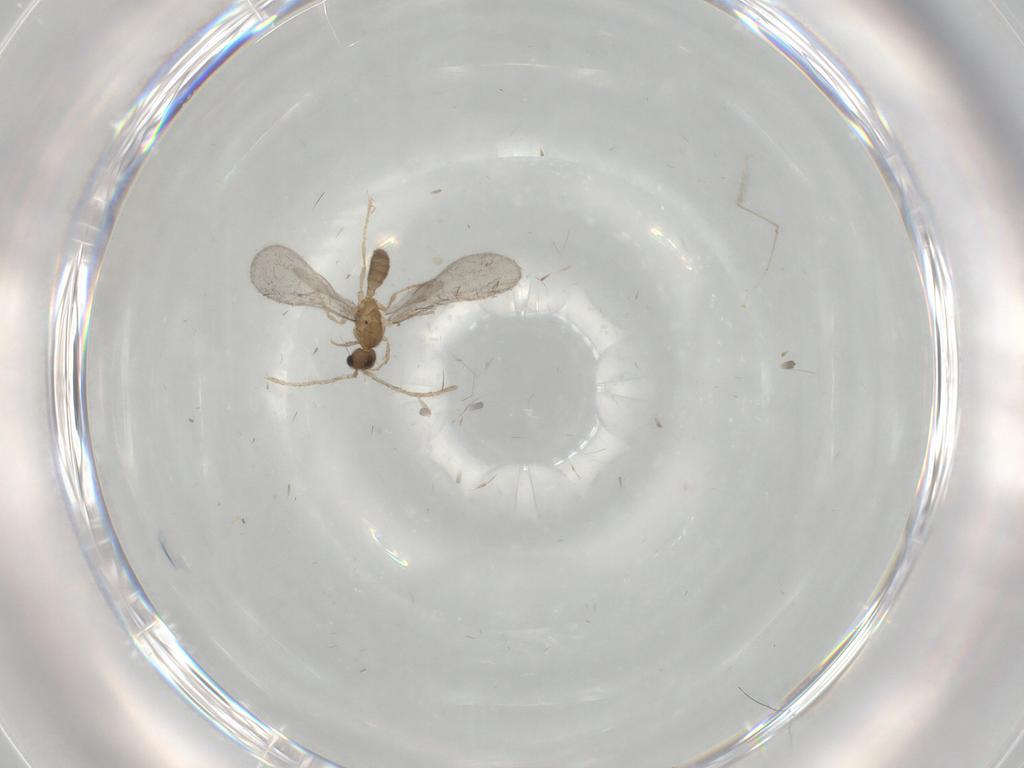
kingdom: Animalia
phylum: Arthropoda
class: Insecta
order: Hymenoptera
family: Formicidae
